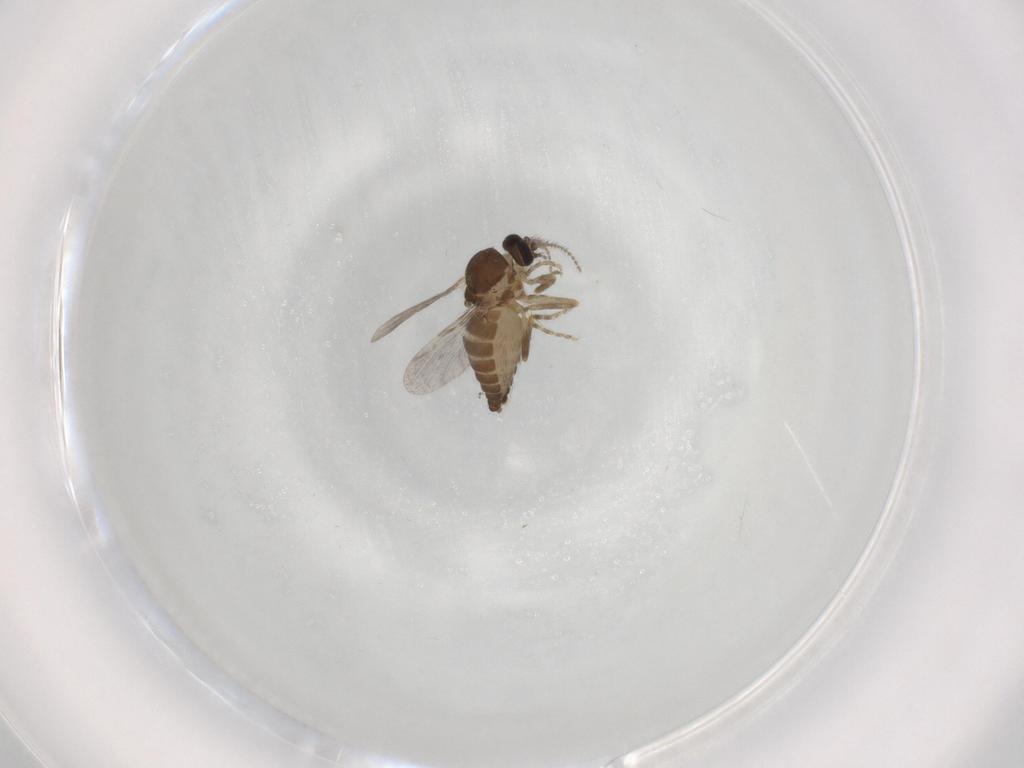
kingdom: Animalia
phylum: Arthropoda
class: Insecta
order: Diptera
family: Ceratopogonidae
